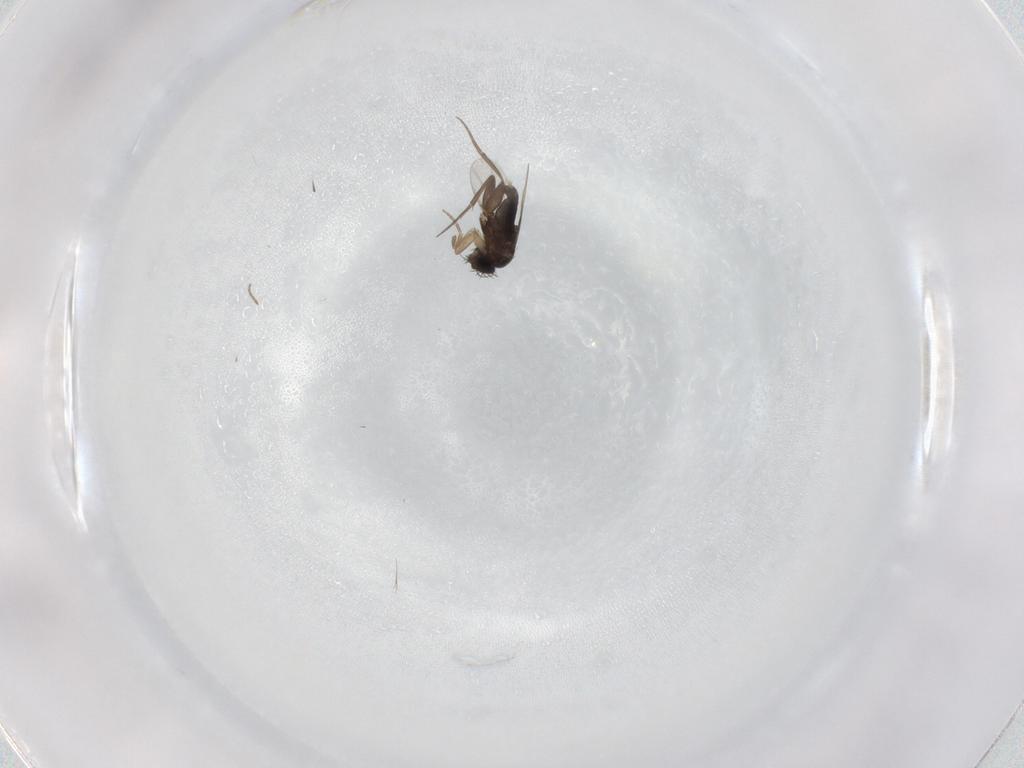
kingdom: Animalia
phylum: Arthropoda
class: Insecta
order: Diptera
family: Phoridae
